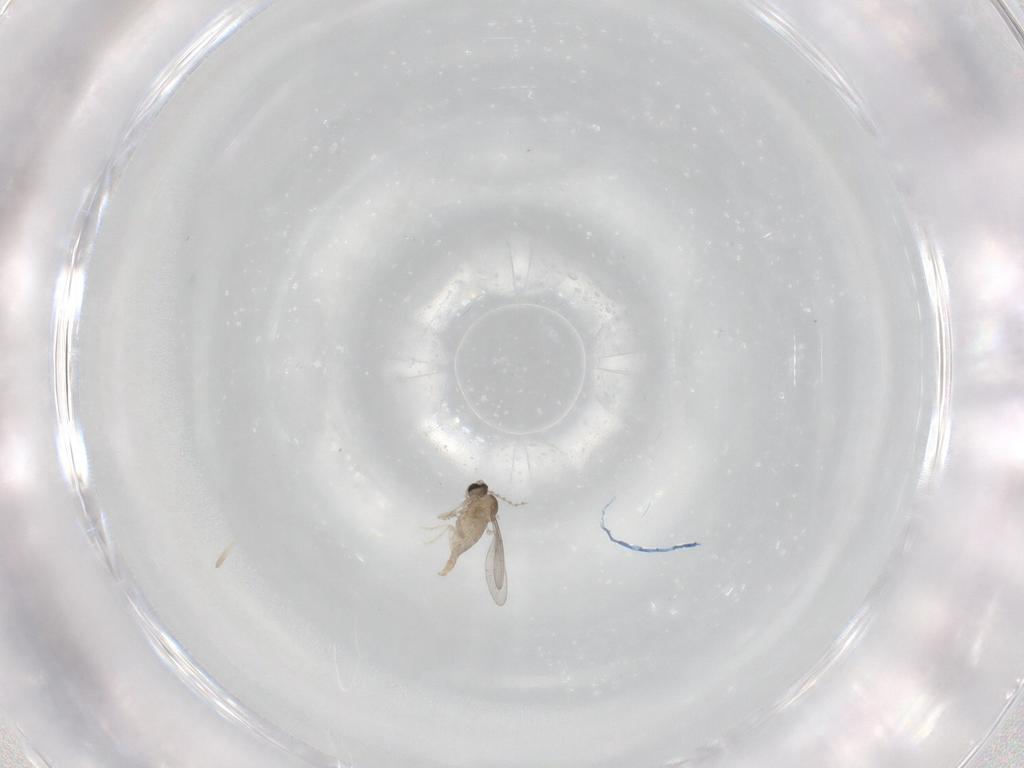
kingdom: Animalia
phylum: Arthropoda
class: Insecta
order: Diptera
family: Cecidomyiidae
